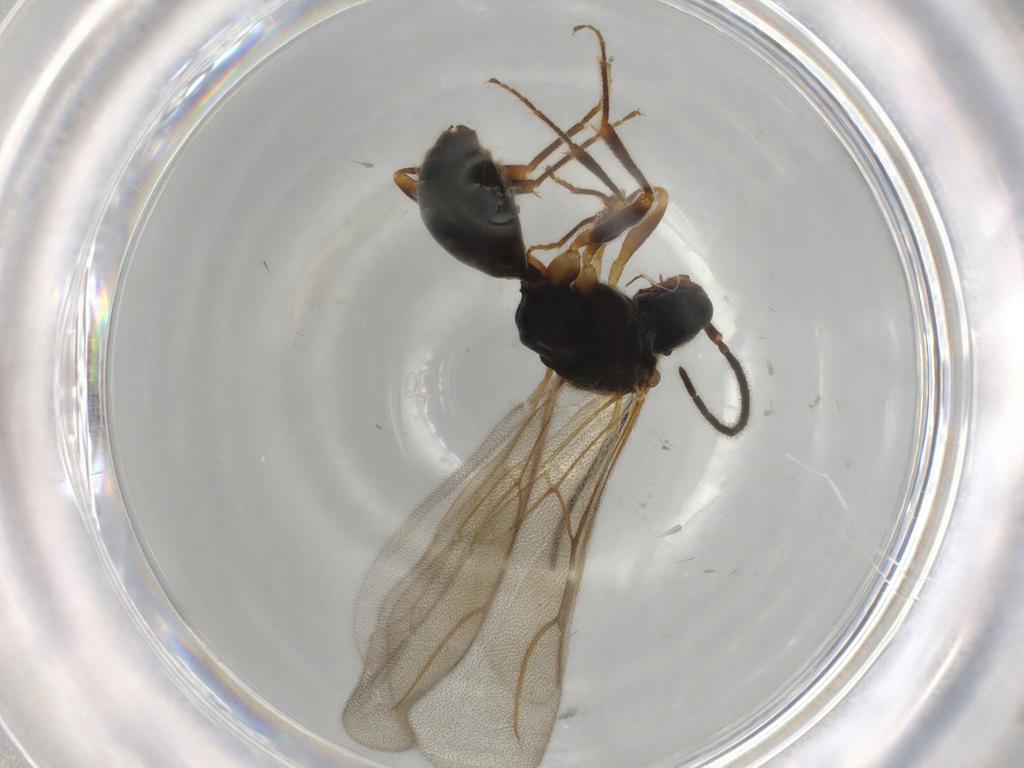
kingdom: Animalia
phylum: Arthropoda
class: Insecta
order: Hymenoptera
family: Bethylidae
